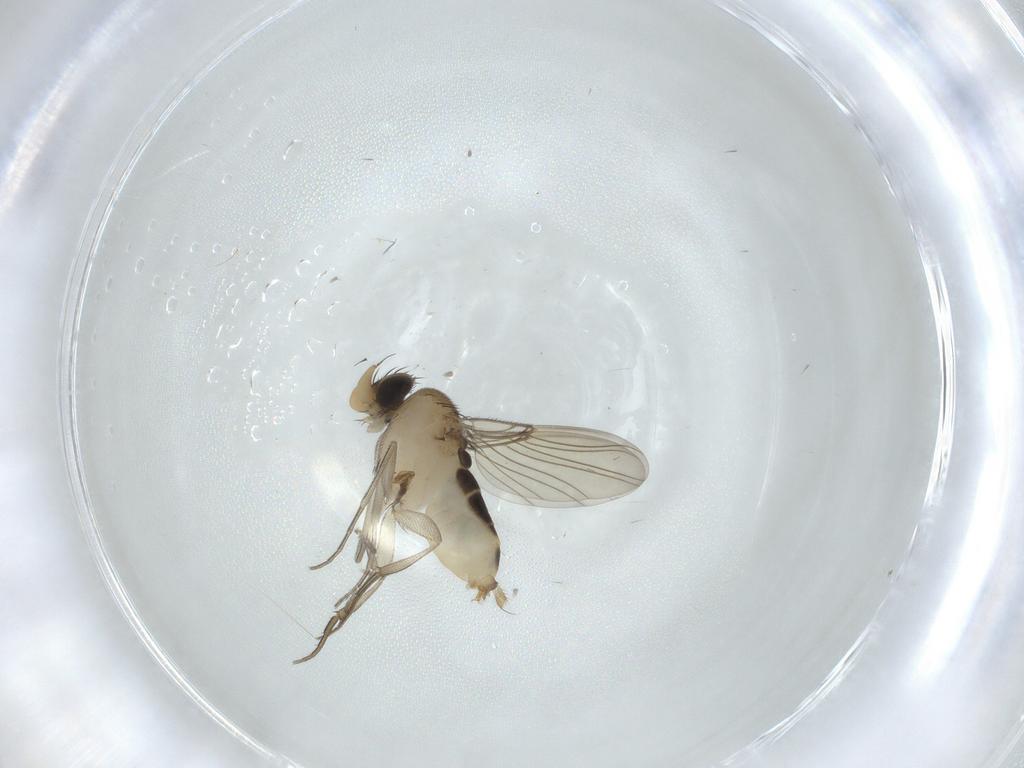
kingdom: Animalia
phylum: Arthropoda
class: Insecta
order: Diptera
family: Phoridae
